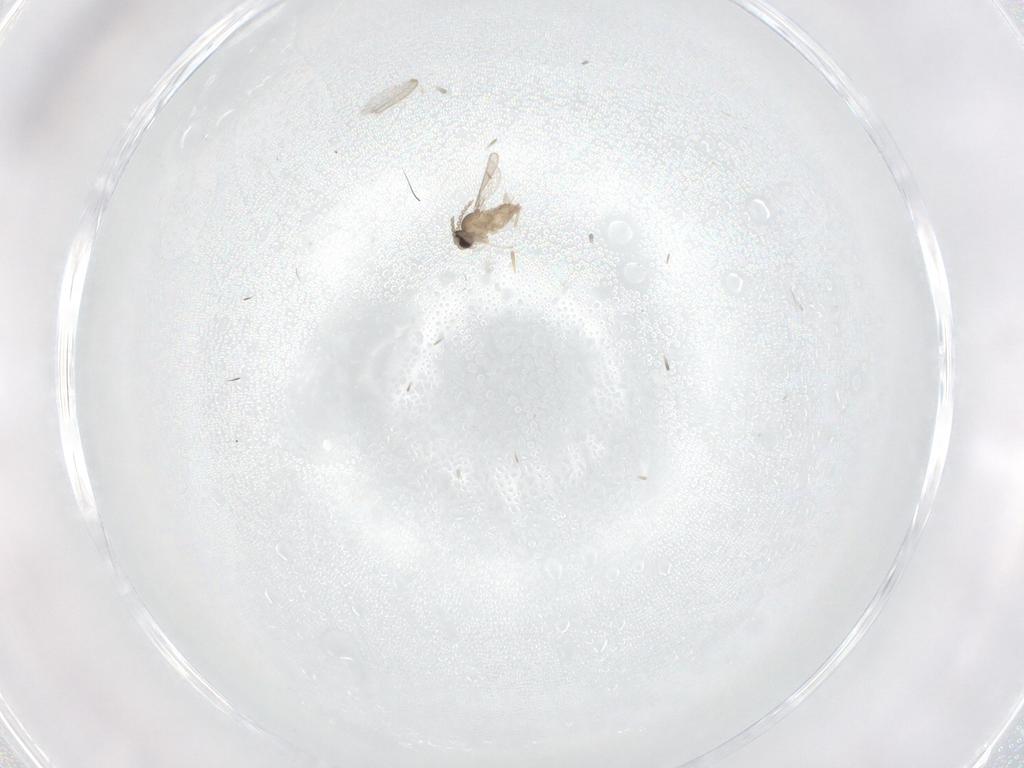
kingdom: Animalia
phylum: Arthropoda
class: Insecta
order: Diptera
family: Cecidomyiidae
